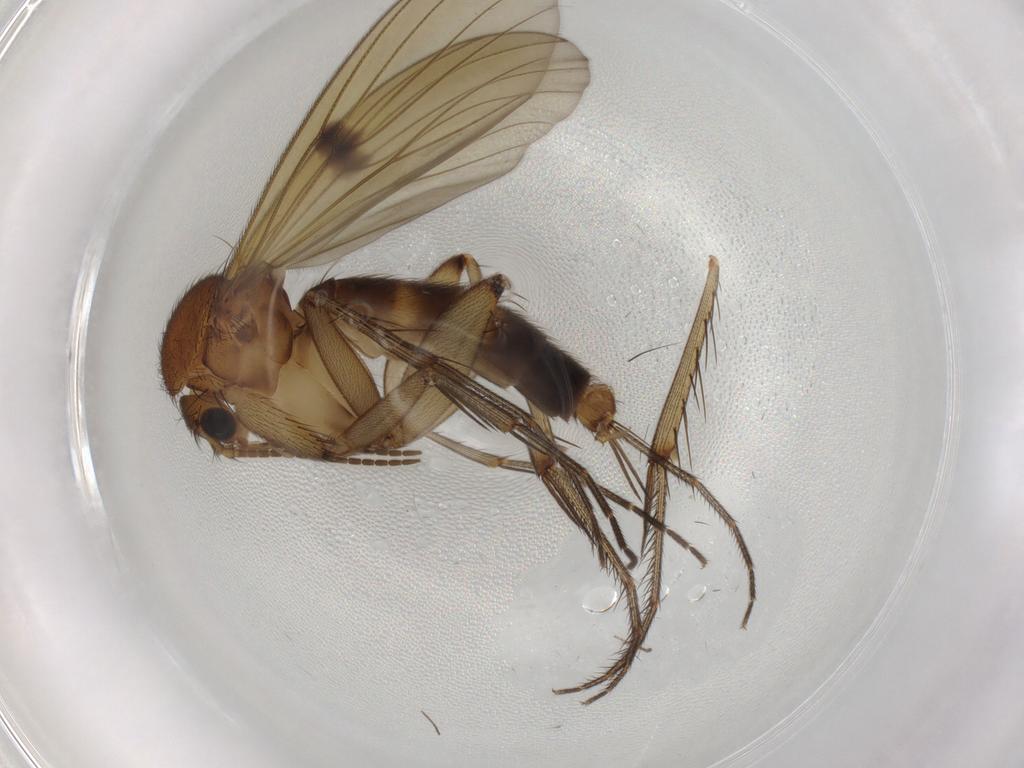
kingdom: Animalia
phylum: Arthropoda
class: Insecta
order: Diptera
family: Mycetophilidae
